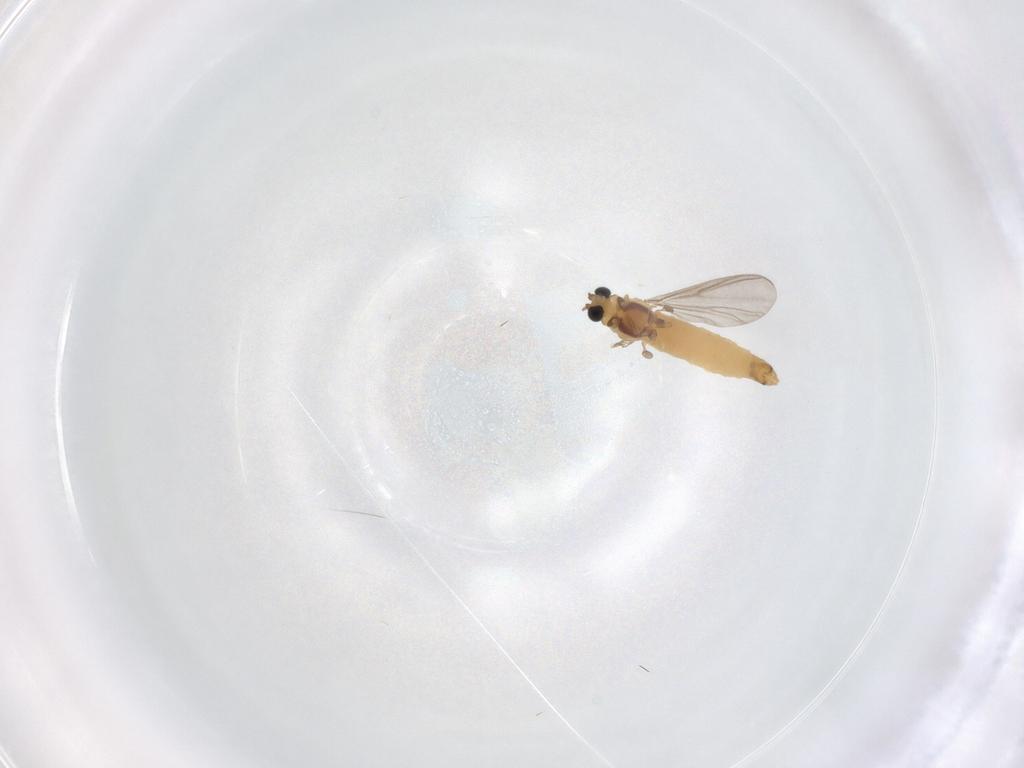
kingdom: Animalia
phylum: Arthropoda
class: Insecta
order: Diptera
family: Chironomidae
